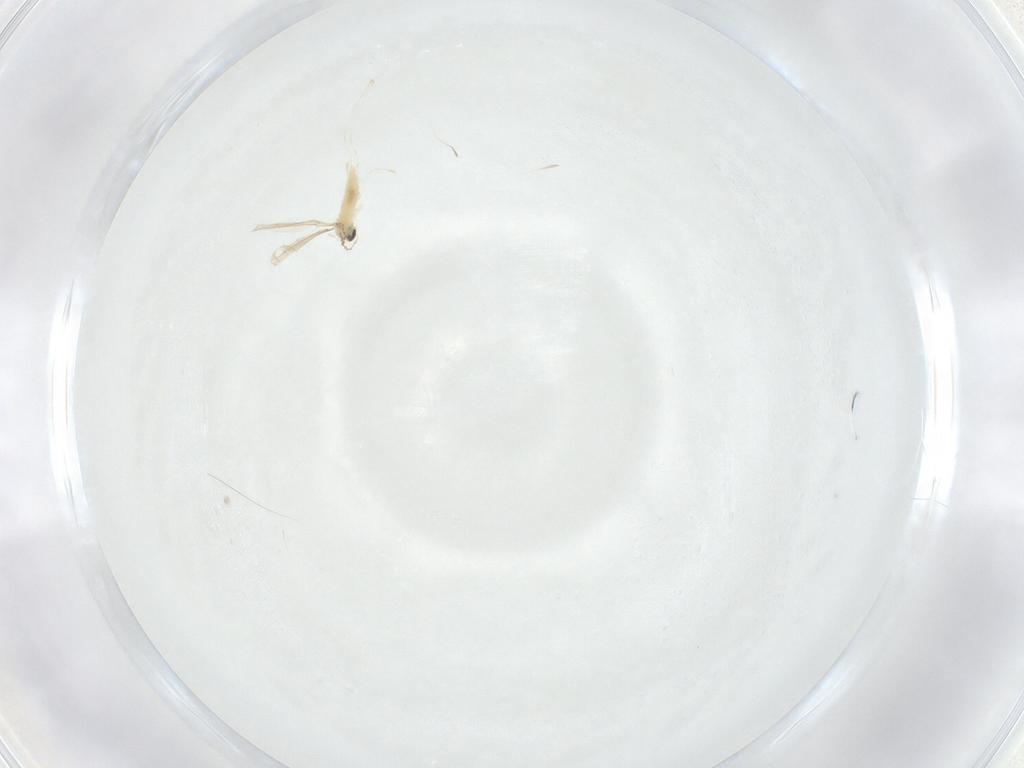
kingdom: Animalia
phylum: Arthropoda
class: Insecta
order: Diptera
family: Cecidomyiidae
